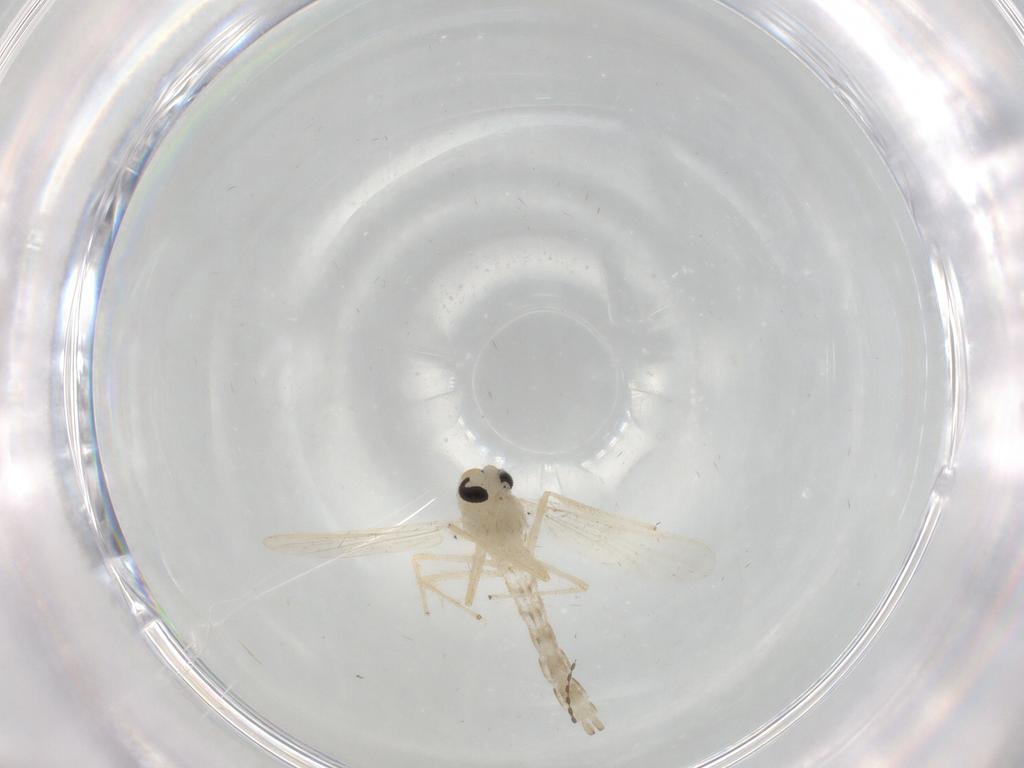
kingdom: Animalia
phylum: Arthropoda
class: Insecta
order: Diptera
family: Chironomidae
